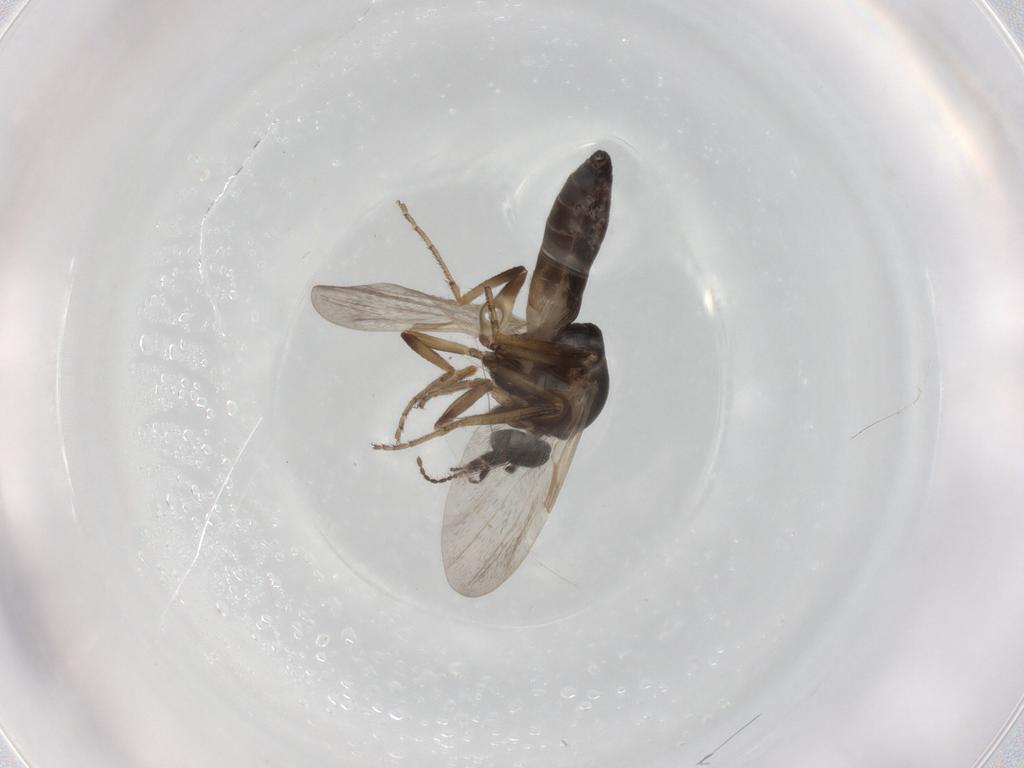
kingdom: Animalia
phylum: Arthropoda
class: Insecta
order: Diptera
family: Ceratopogonidae
